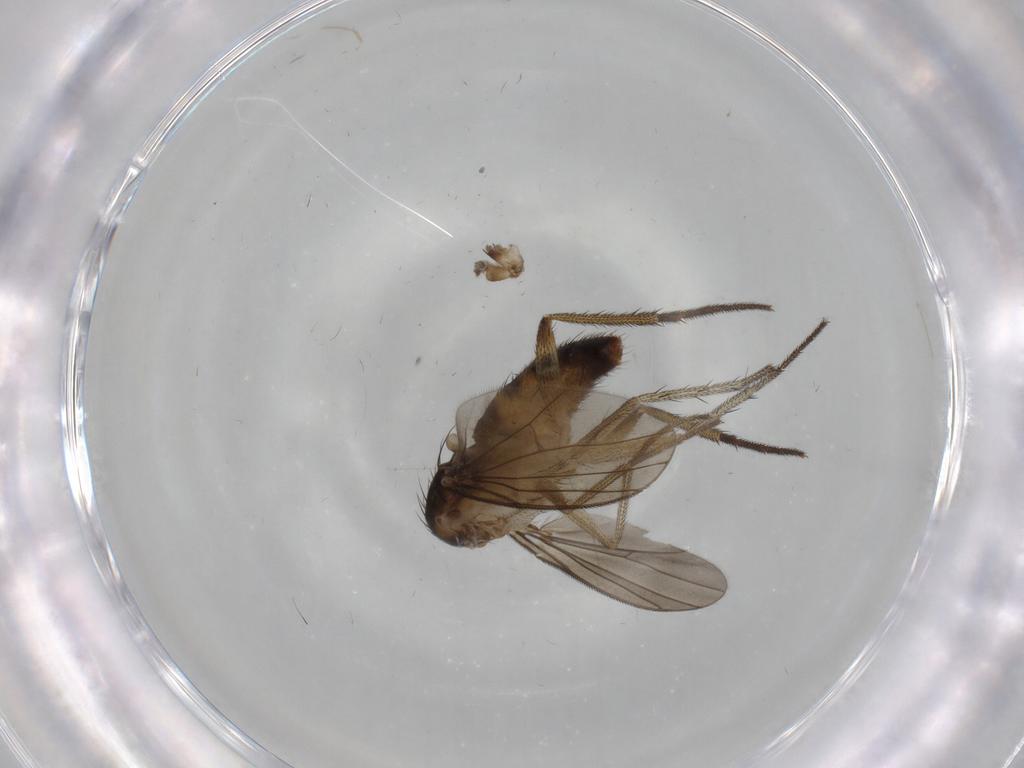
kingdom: Animalia
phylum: Arthropoda
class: Insecta
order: Diptera
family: Dolichopodidae
